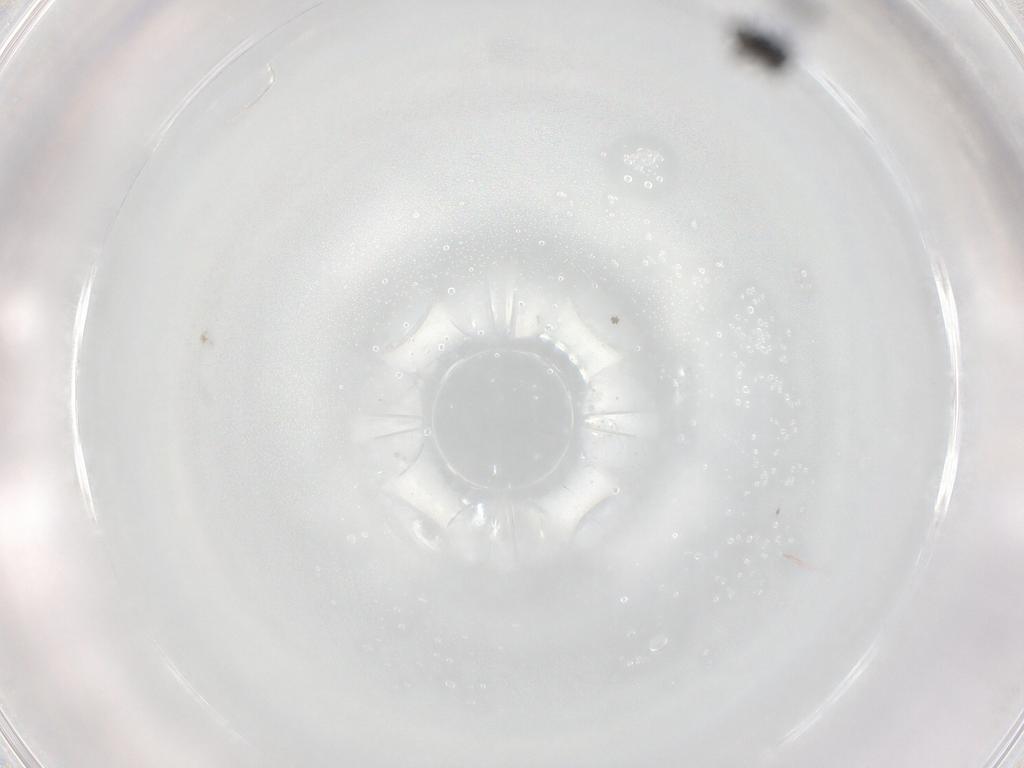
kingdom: Animalia
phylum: Arthropoda
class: Insecta
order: Hymenoptera
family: Scelionidae
